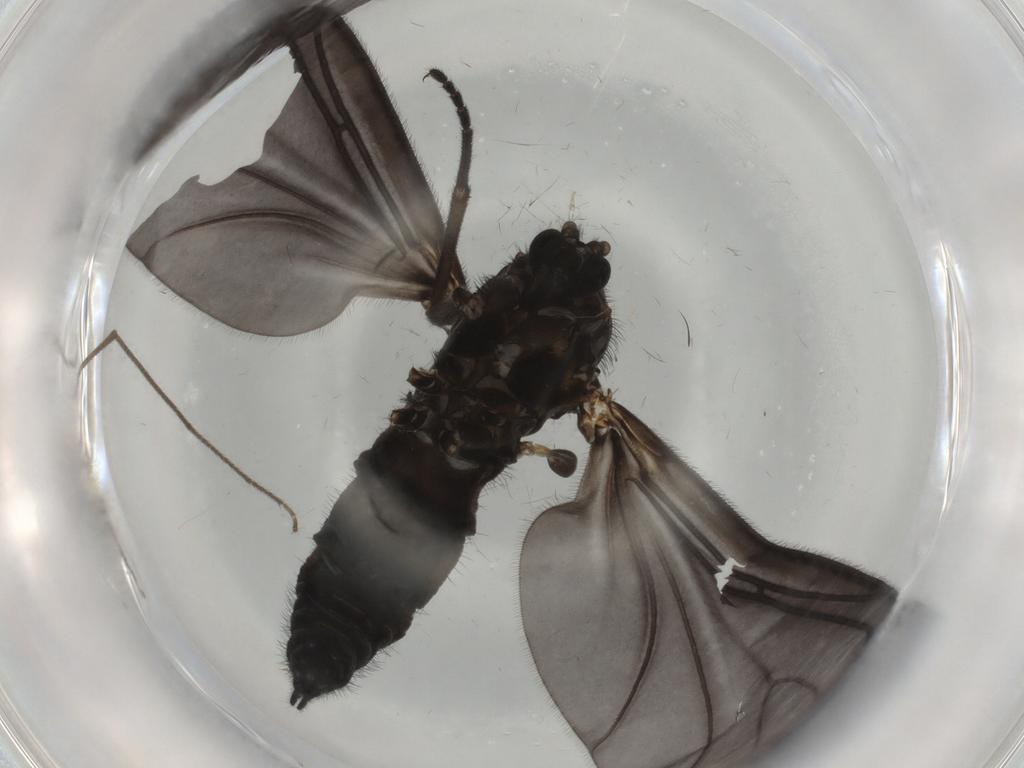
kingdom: Animalia
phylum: Arthropoda
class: Insecta
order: Diptera
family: Sciaridae
